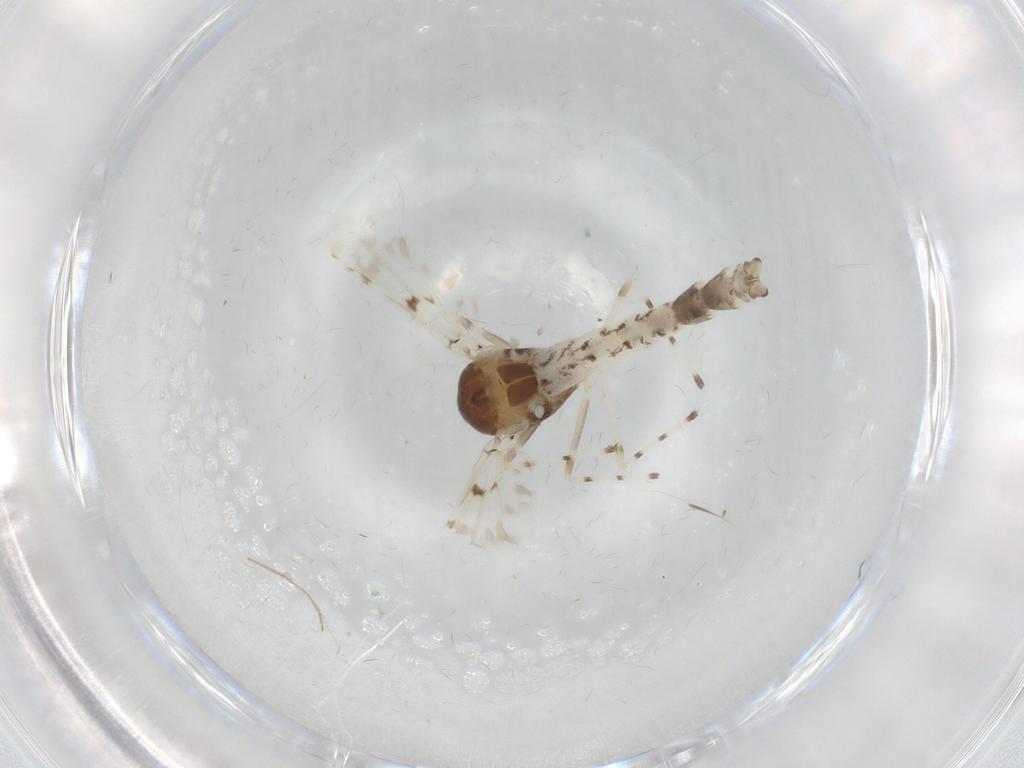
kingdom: Animalia
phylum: Arthropoda
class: Insecta
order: Diptera
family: Chironomidae
